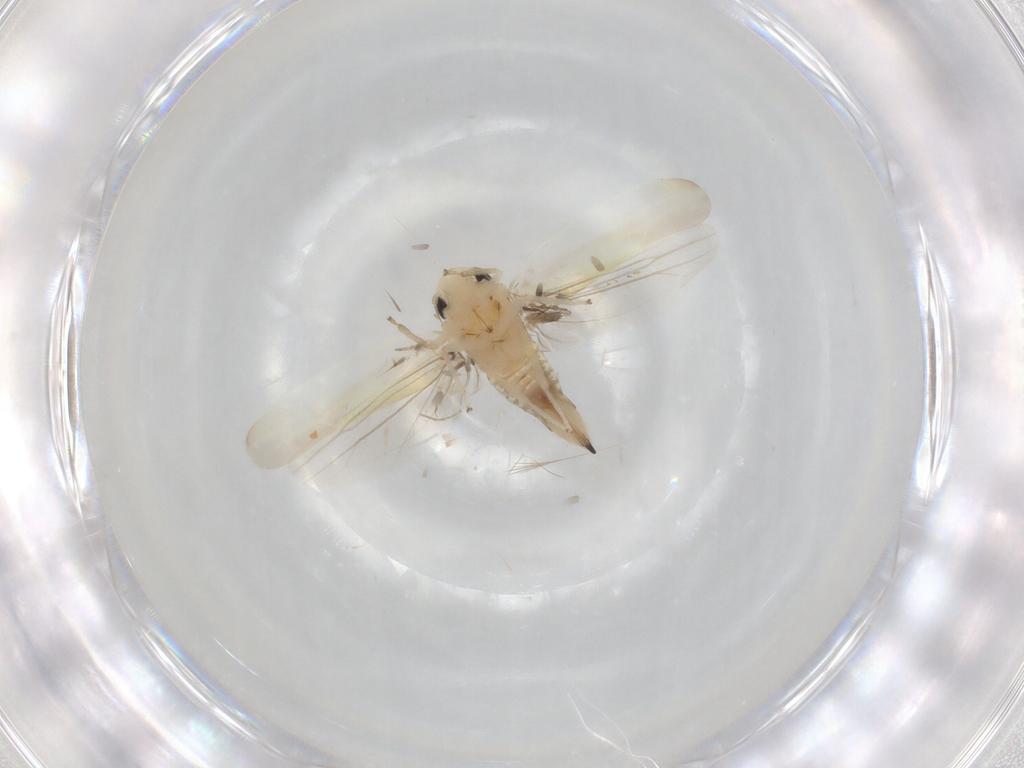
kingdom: Animalia
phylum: Arthropoda
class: Insecta
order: Hemiptera
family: Cicadellidae
